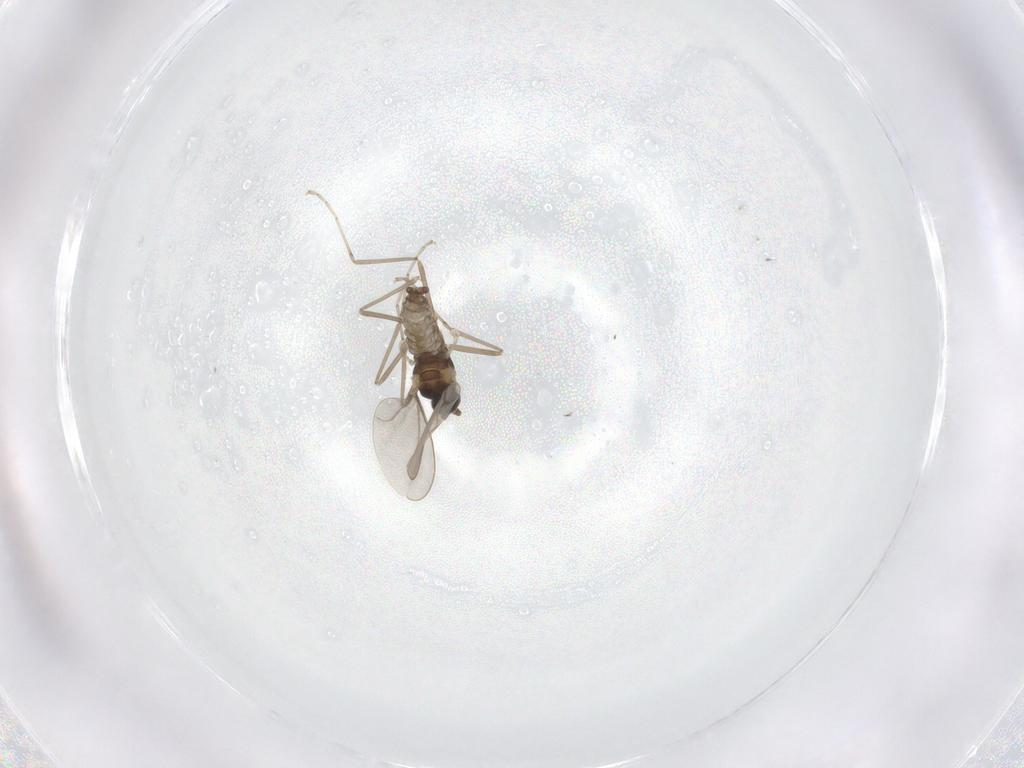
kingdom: Animalia
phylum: Arthropoda
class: Insecta
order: Diptera
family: Cecidomyiidae
